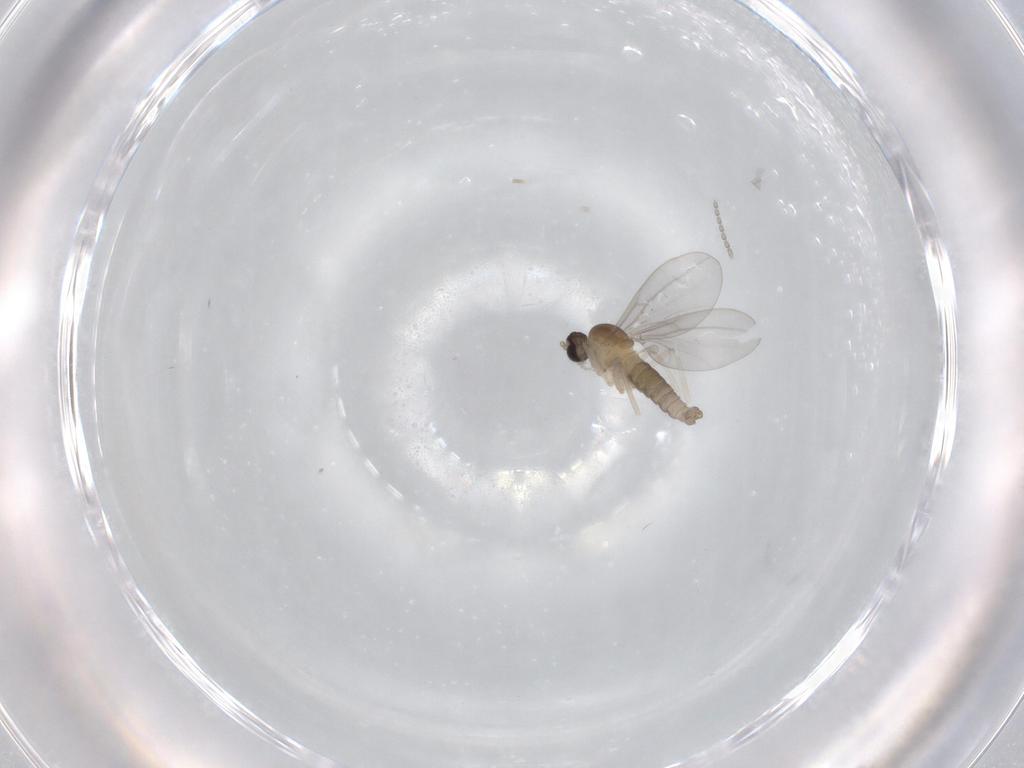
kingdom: Animalia
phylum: Arthropoda
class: Insecta
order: Diptera
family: Cecidomyiidae
